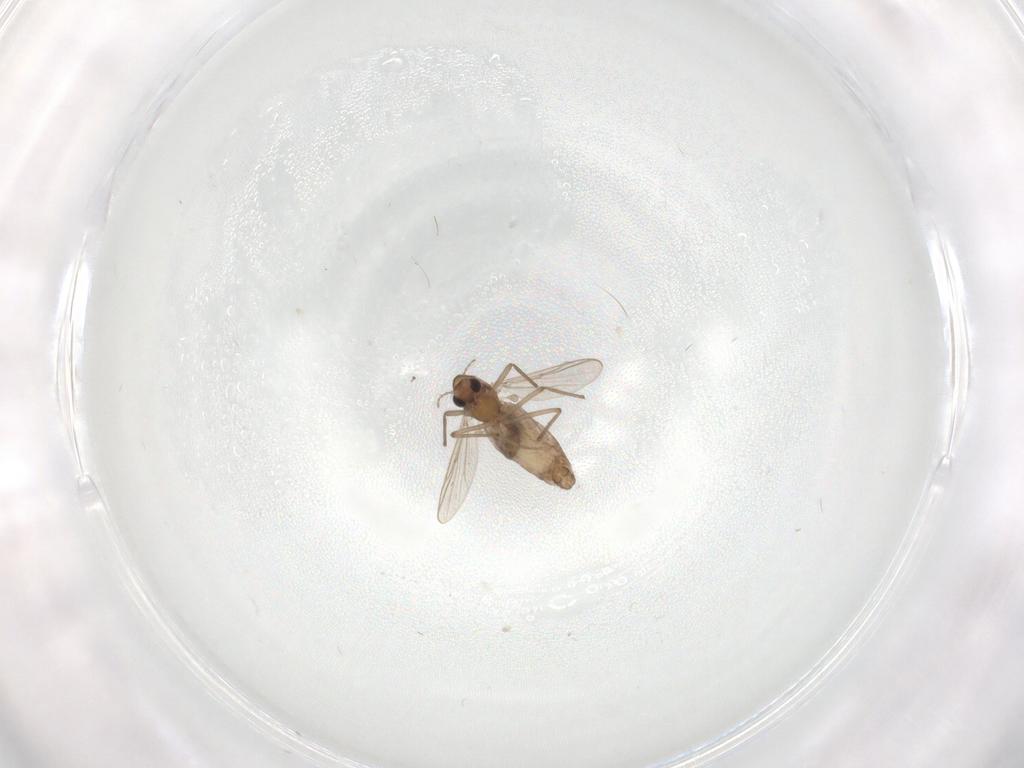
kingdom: Animalia
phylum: Arthropoda
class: Insecta
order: Diptera
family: Chironomidae
